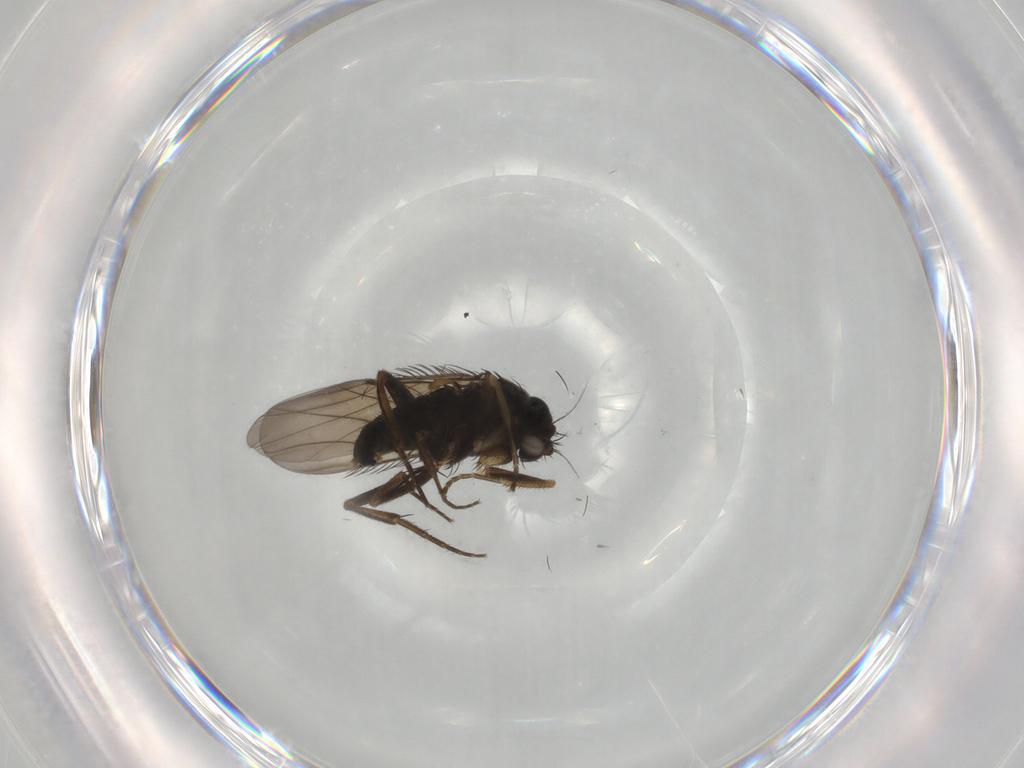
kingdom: Animalia
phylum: Arthropoda
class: Insecta
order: Diptera
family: Phoridae
